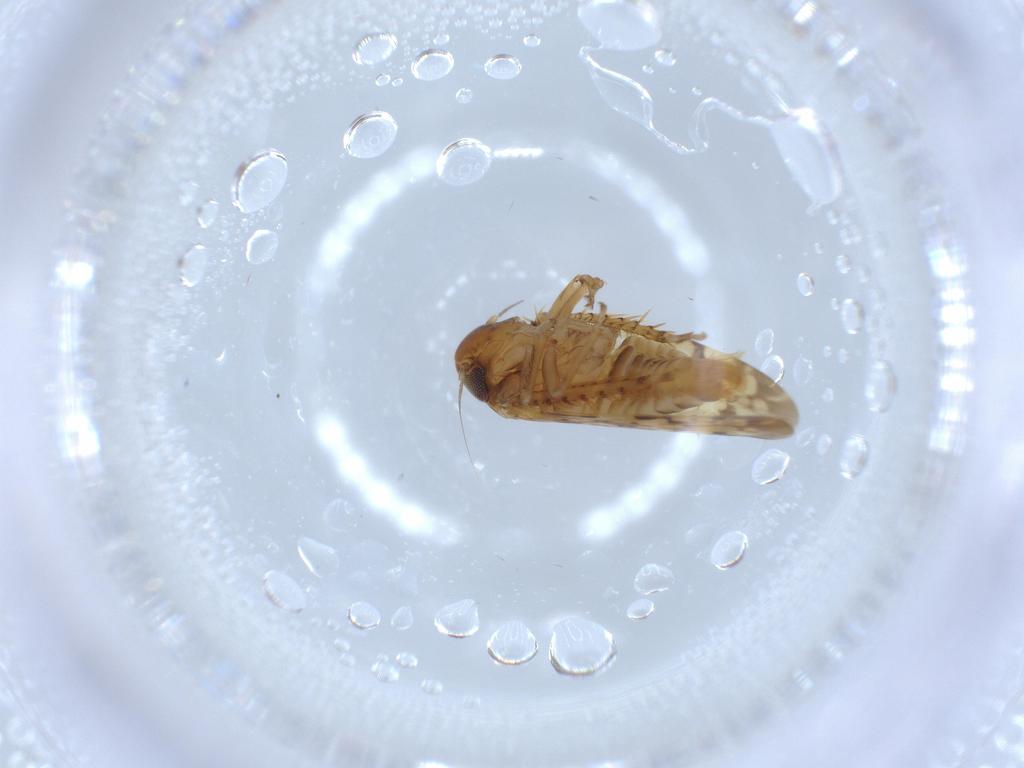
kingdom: Animalia
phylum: Arthropoda
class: Insecta
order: Hemiptera
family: Cicadellidae
